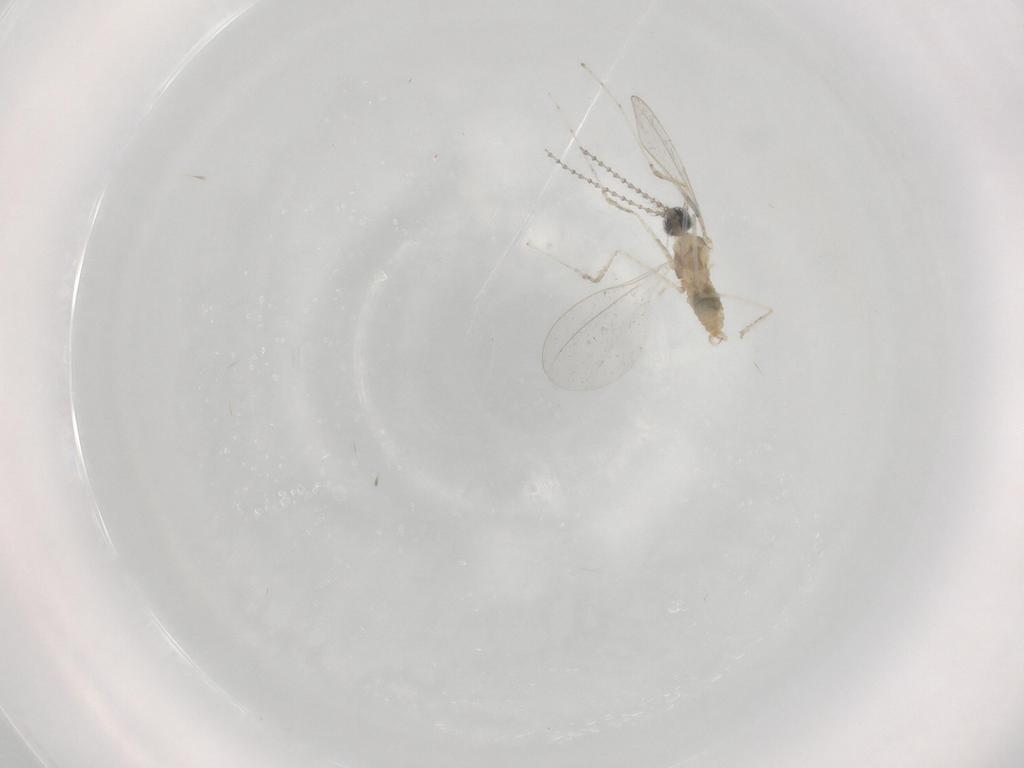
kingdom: Animalia
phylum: Arthropoda
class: Insecta
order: Diptera
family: Cecidomyiidae
